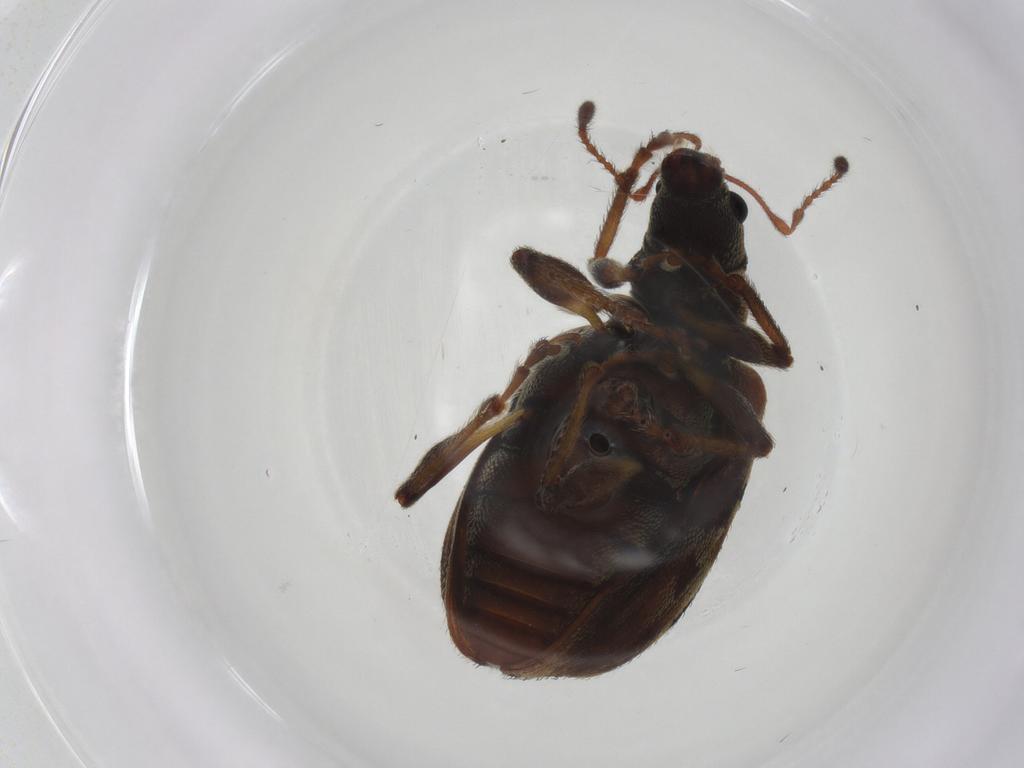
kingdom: Animalia
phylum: Arthropoda
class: Insecta
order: Coleoptera
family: Curculionidae
